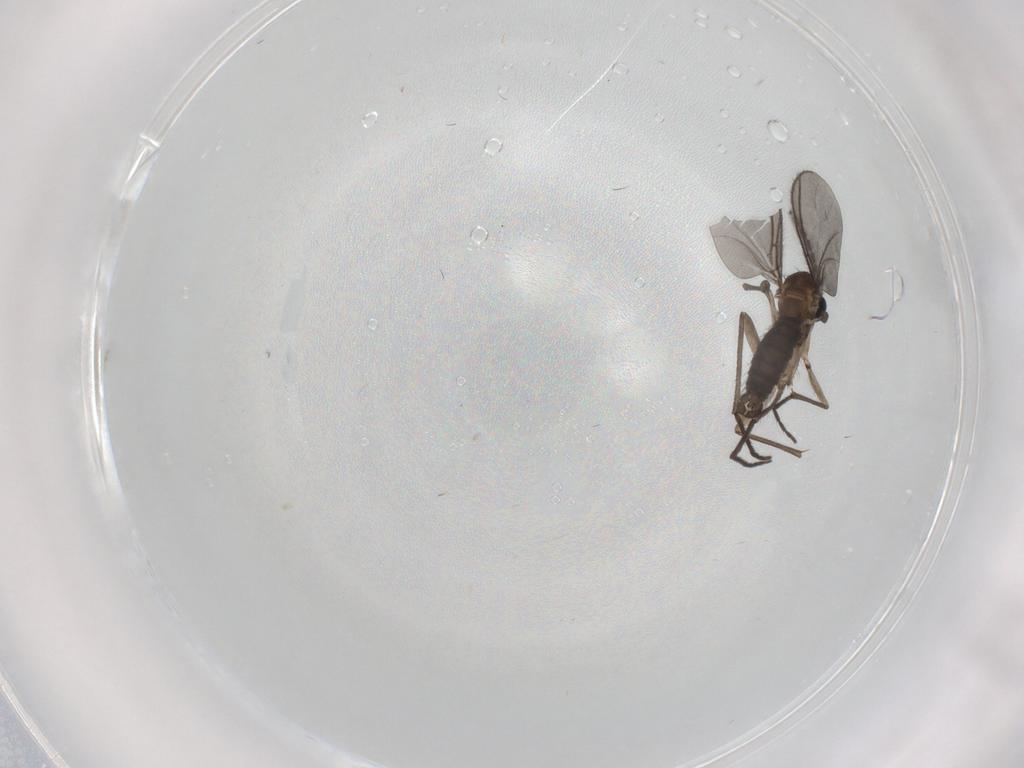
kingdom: Animalia
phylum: Arthropoda
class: Insecta
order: Diptera
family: Sciaridae
